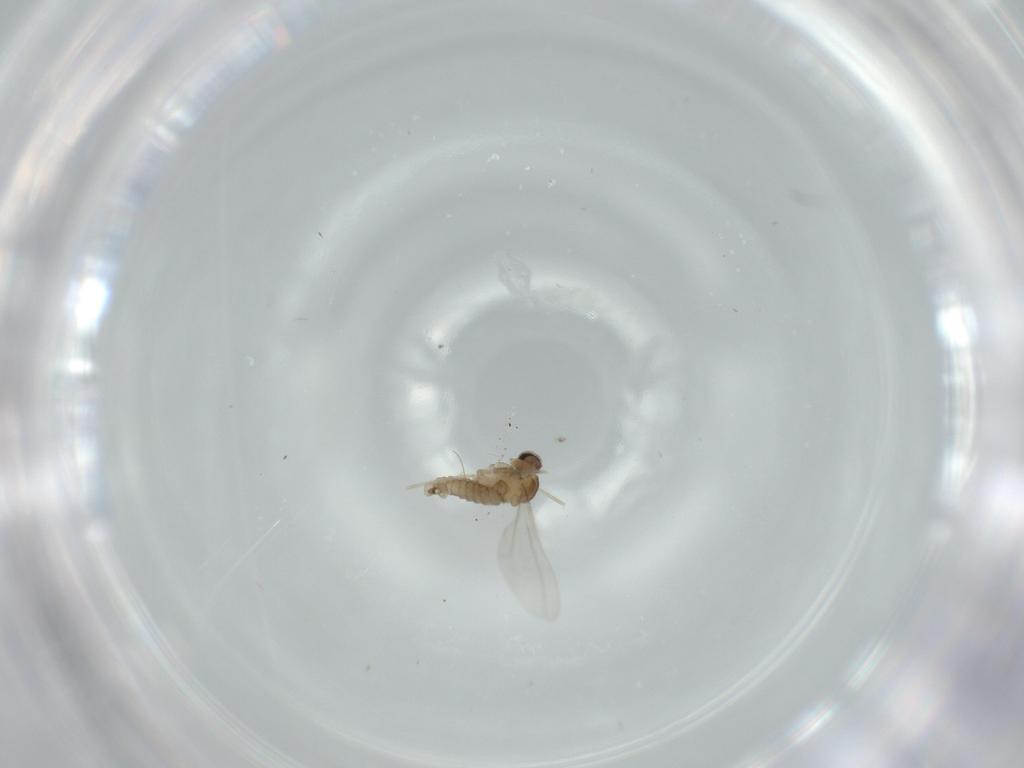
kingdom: Animalia
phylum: Arthropoda
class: Insecta
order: Diptera
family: Cecidomyiidae
